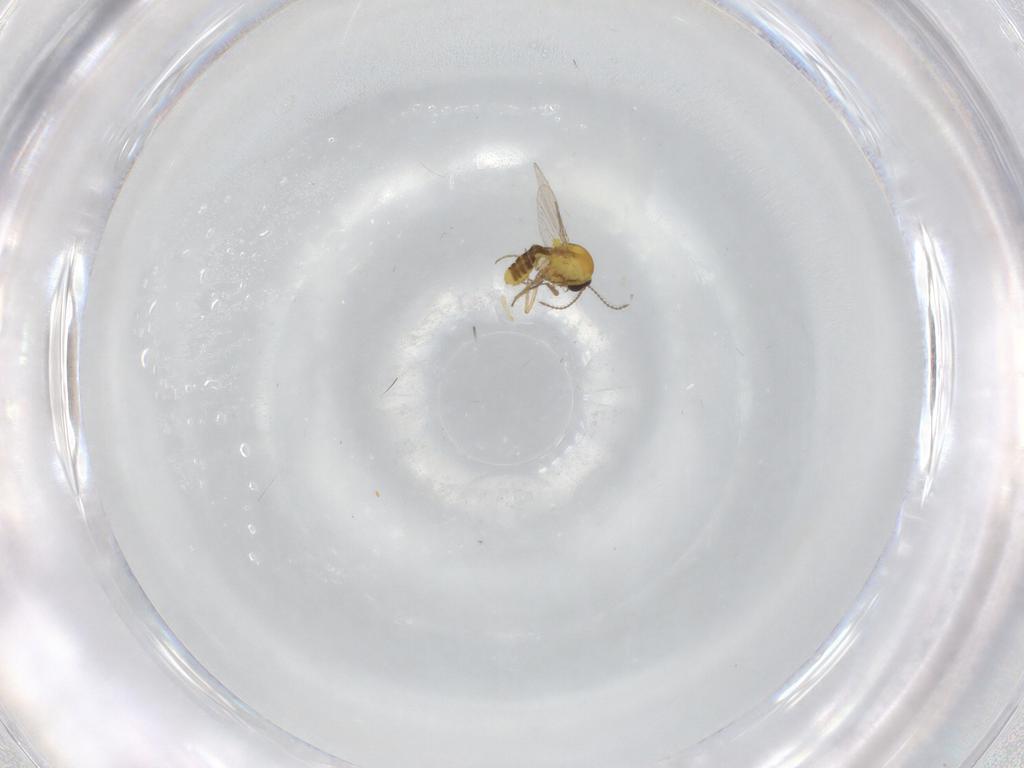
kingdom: Animalia
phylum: Arthropoda
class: Insecta
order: Diptera
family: Ceratopogonidae
